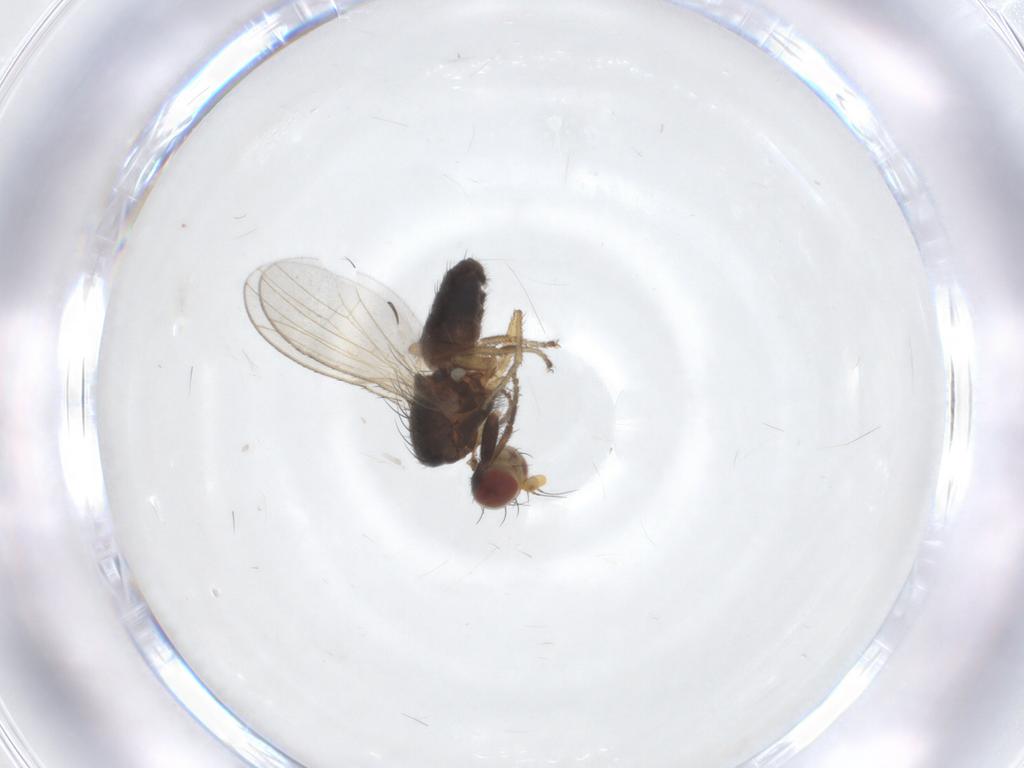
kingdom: Animalia
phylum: Arthropoda
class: Insecta
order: Diptera
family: Heleomyzidae
